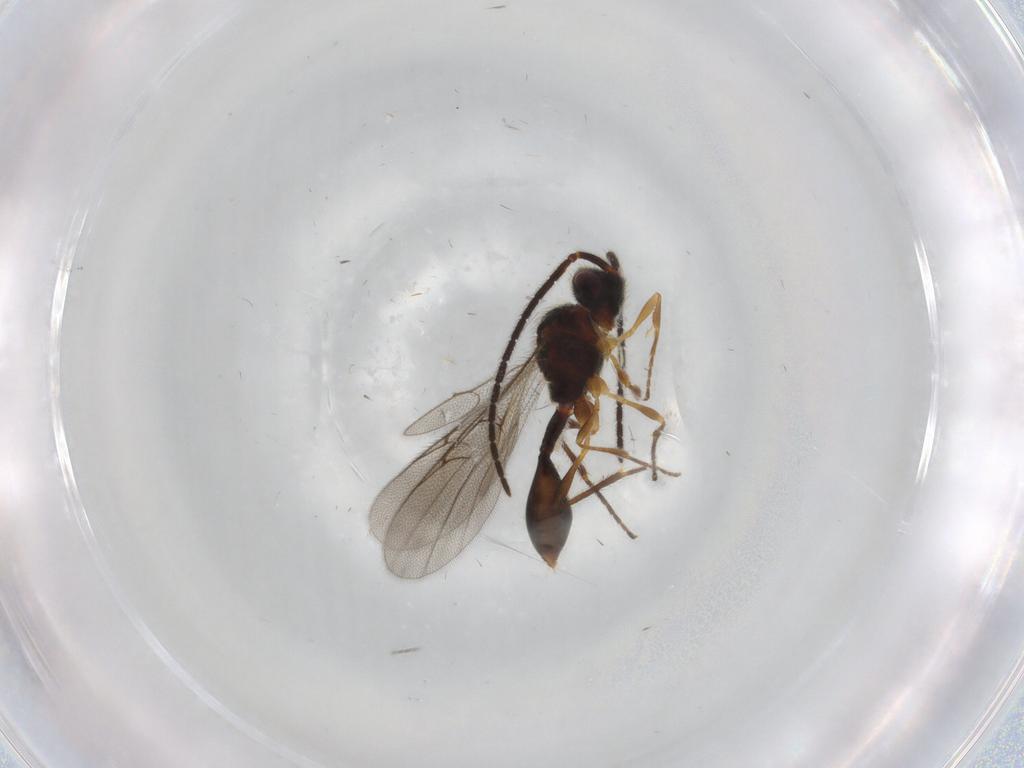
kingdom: Animalia
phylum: Arthropoda
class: Insecta
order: Hymenoptera
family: Diapriidae
